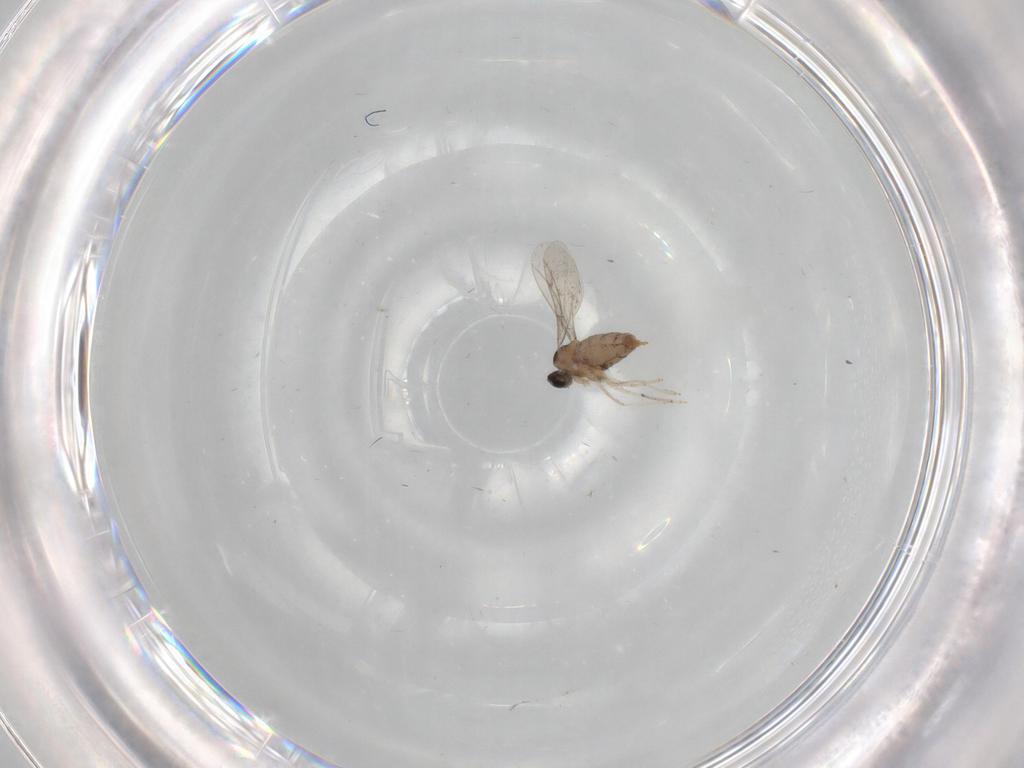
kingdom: Animalia
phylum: Arthropoda
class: Insecta
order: Diptera
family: Cecidomyiidae
